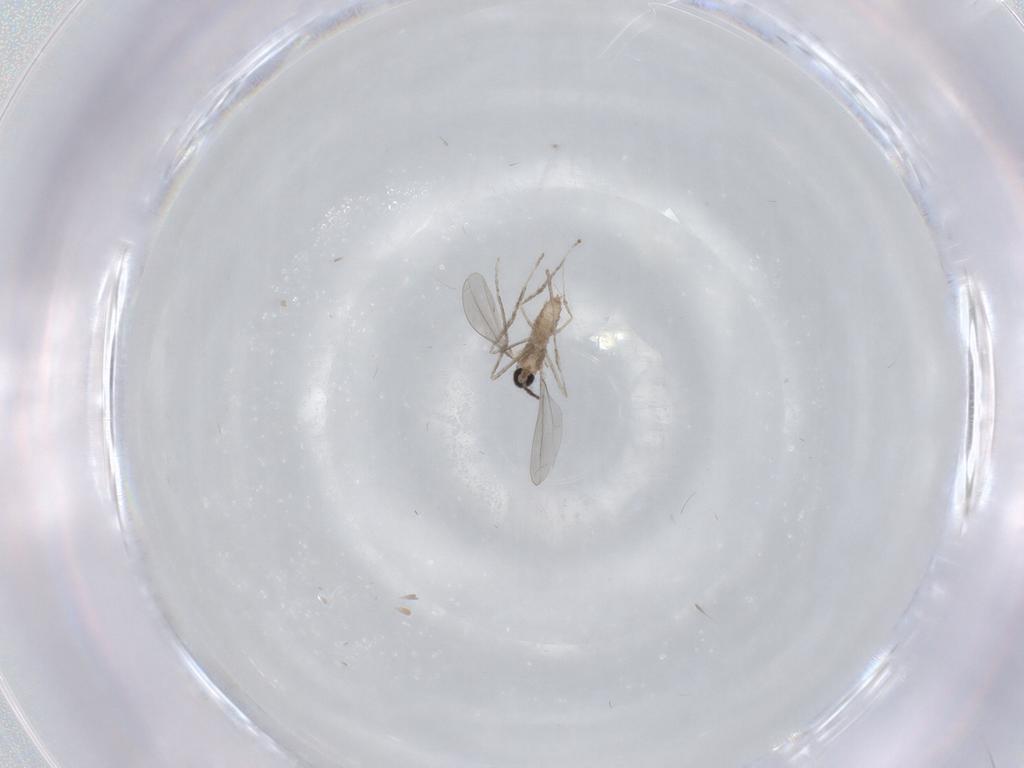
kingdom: Animalia
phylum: Arthropoda
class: Insecta
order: Diptera
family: Cecidomyiidae
